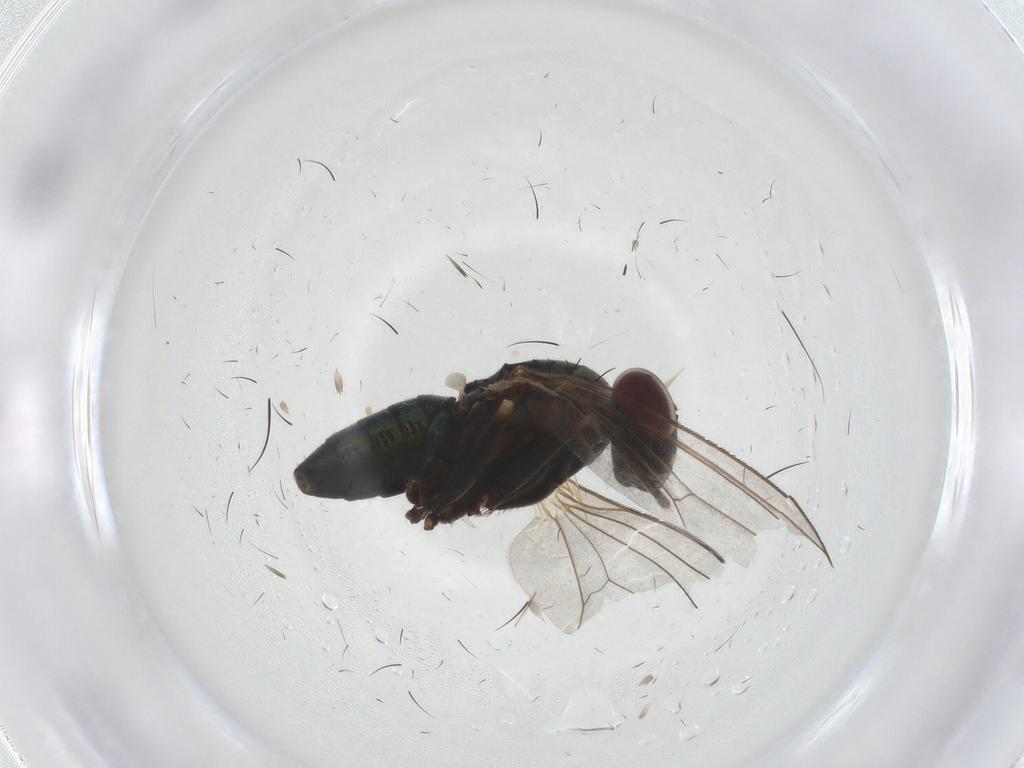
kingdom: Animalia
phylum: Arthropoda
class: Insecta
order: Diptera
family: Dolichopodidae
